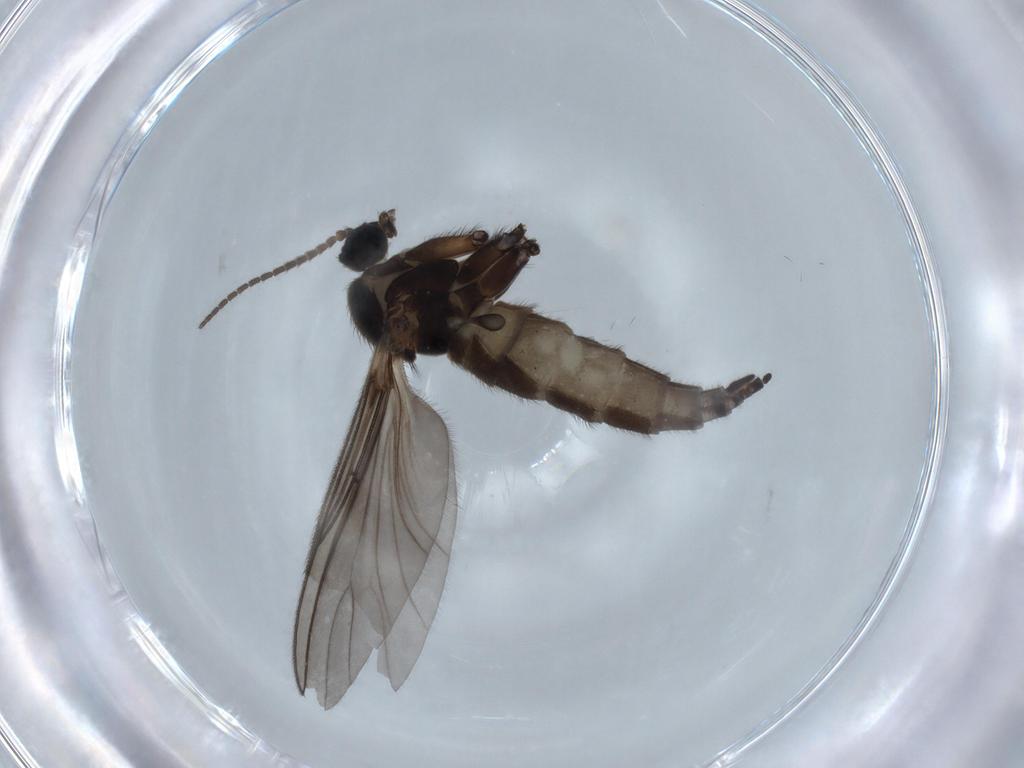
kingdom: Animalia
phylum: Arthropoda
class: Insecta
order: Diptera
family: Sciaridae
